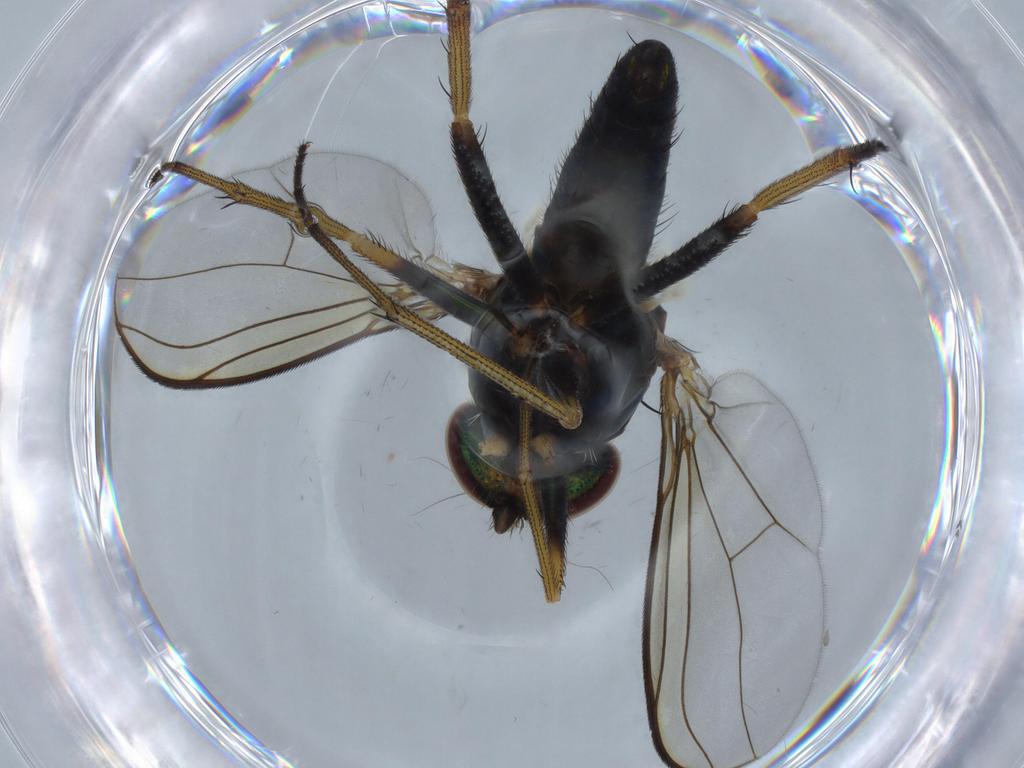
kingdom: Animalia
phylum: Arthropoda
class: Insecta
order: Diptera
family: Dolichopodidae
